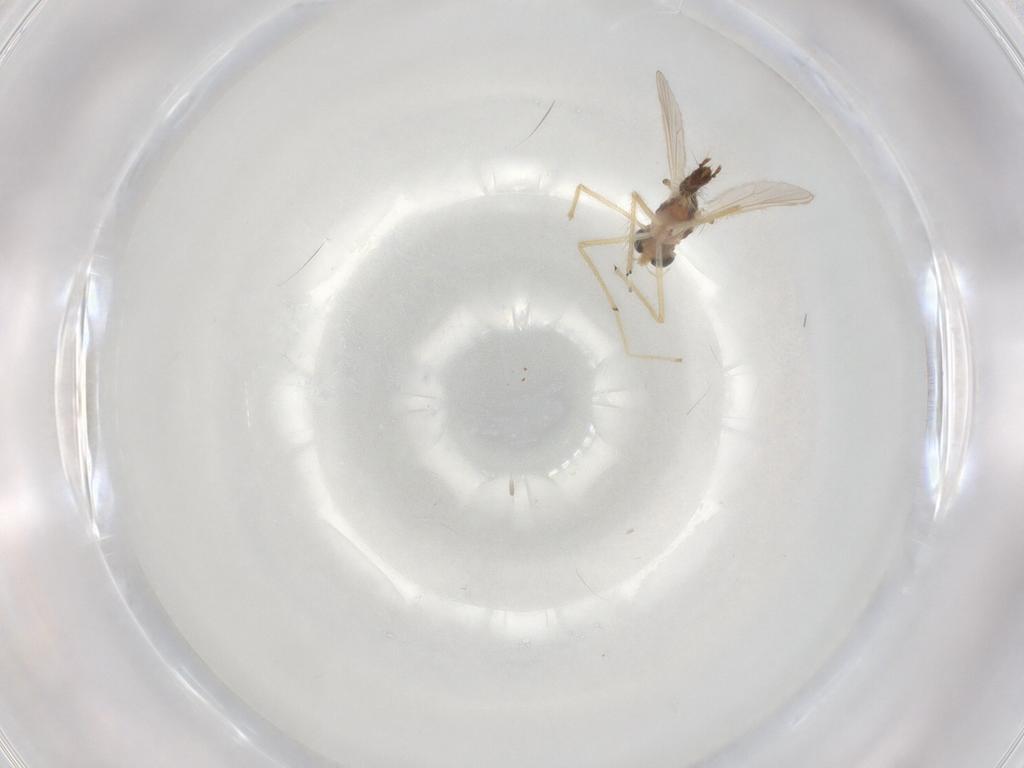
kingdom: Animalia
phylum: Arthropoda
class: Insecta
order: Diptera
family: Chironomidae
